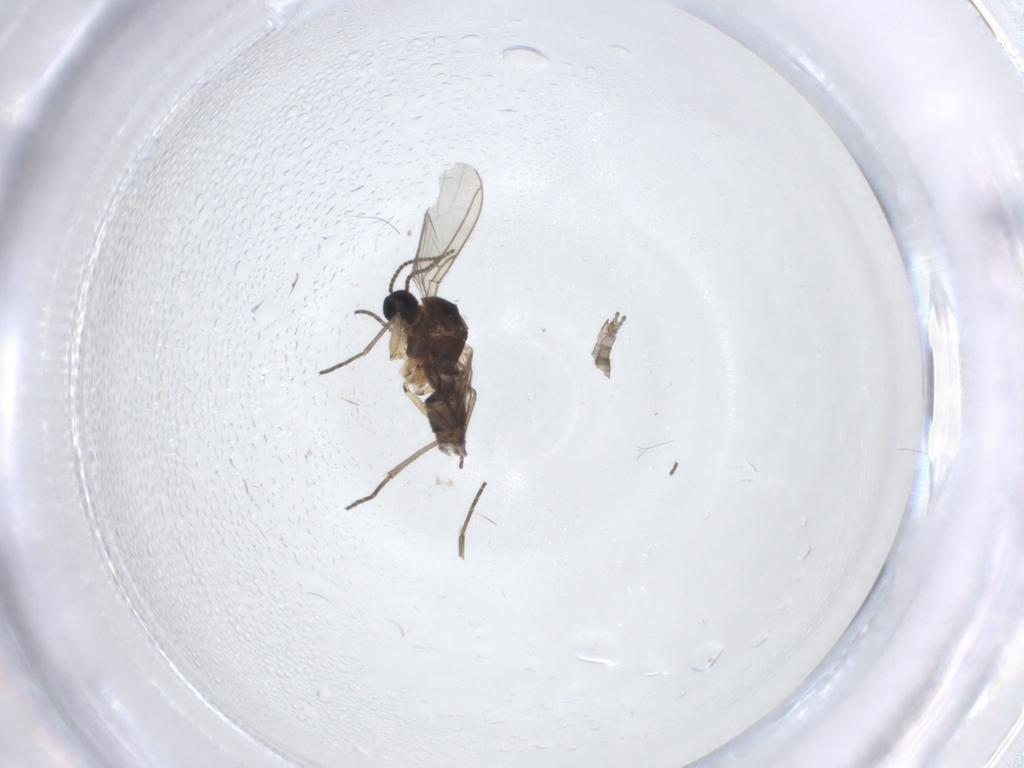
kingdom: Animalia
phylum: Arthropoda
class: Insecta
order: Diptera
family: Sciaridae
